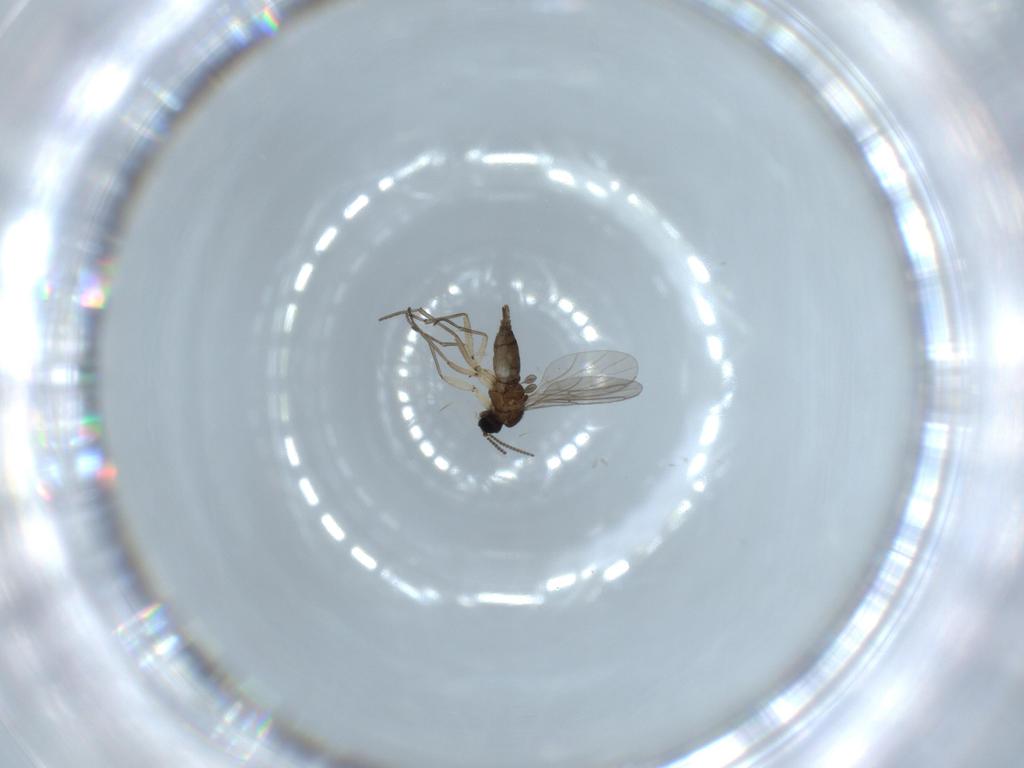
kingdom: Animalia
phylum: Arthropoda
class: Insecta
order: Diptera
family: Sciaridae
